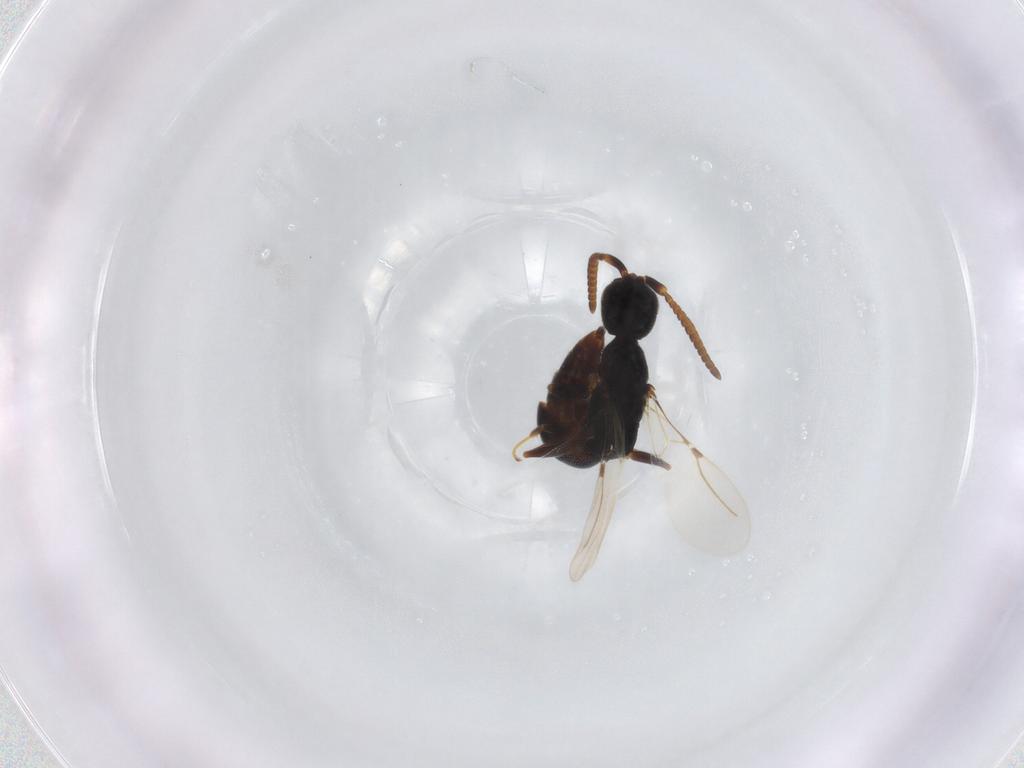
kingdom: Animalia
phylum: Arthropoda
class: Insecta
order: Hymenoptera
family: Bethylidae
